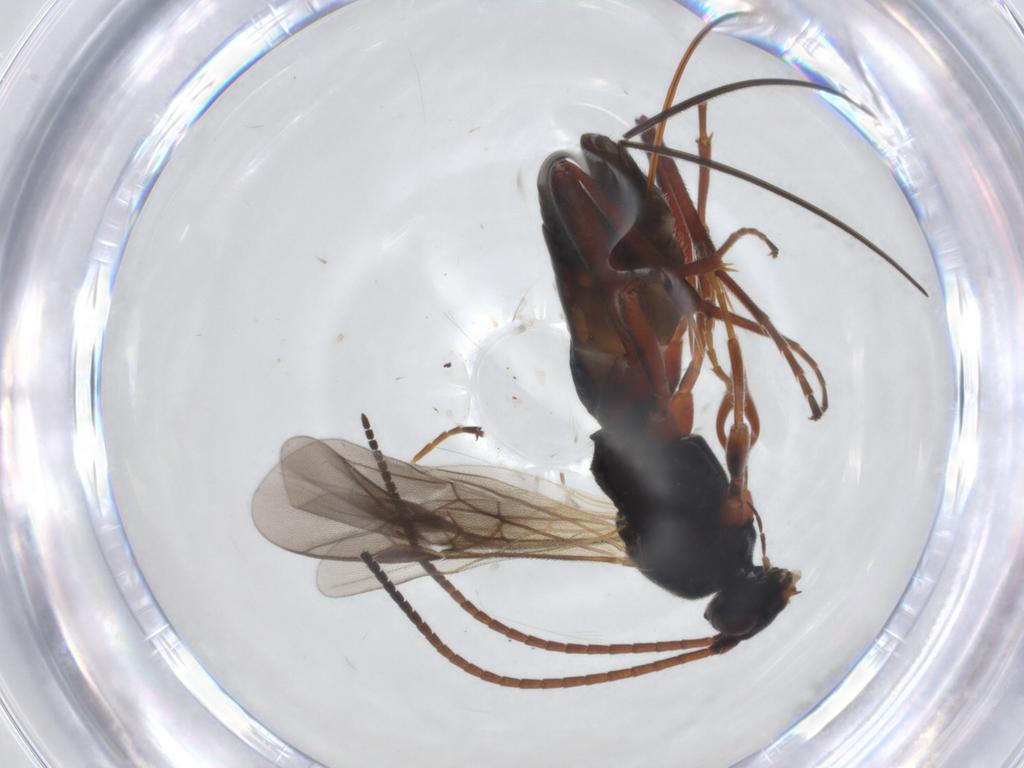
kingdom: Animalia
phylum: Arthropoda
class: Insecta
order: Hymenoptera
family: Braconidae
